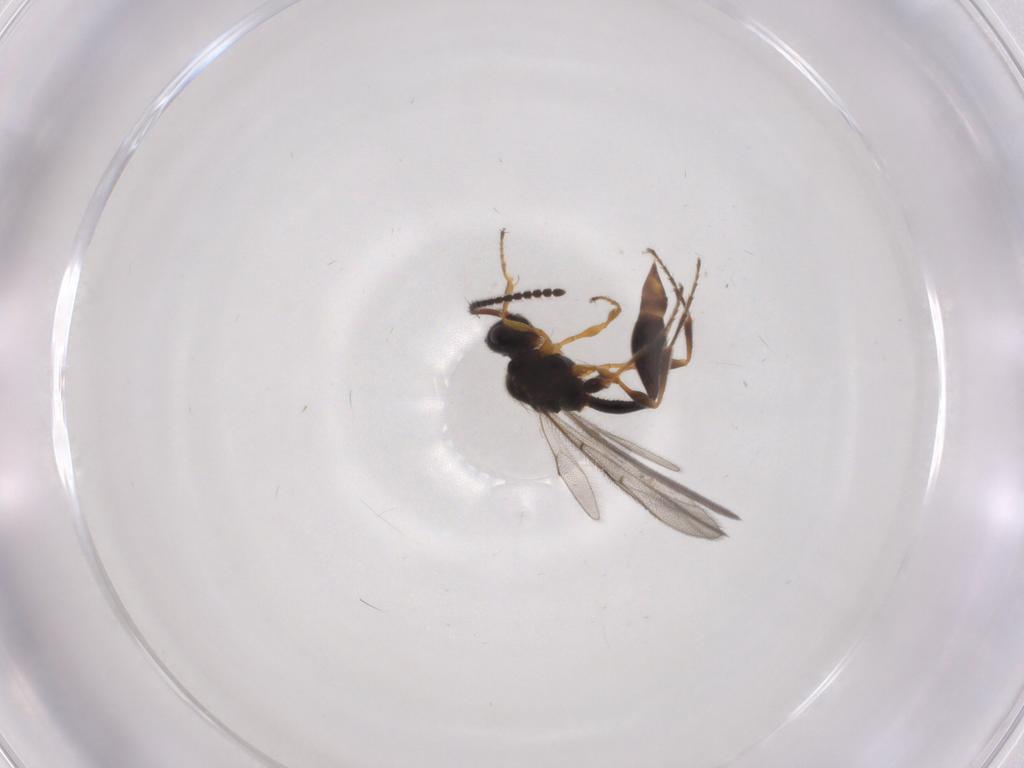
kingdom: Animalia
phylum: Arthropoda
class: Insecta
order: Hymenoptera
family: Diapriidae
